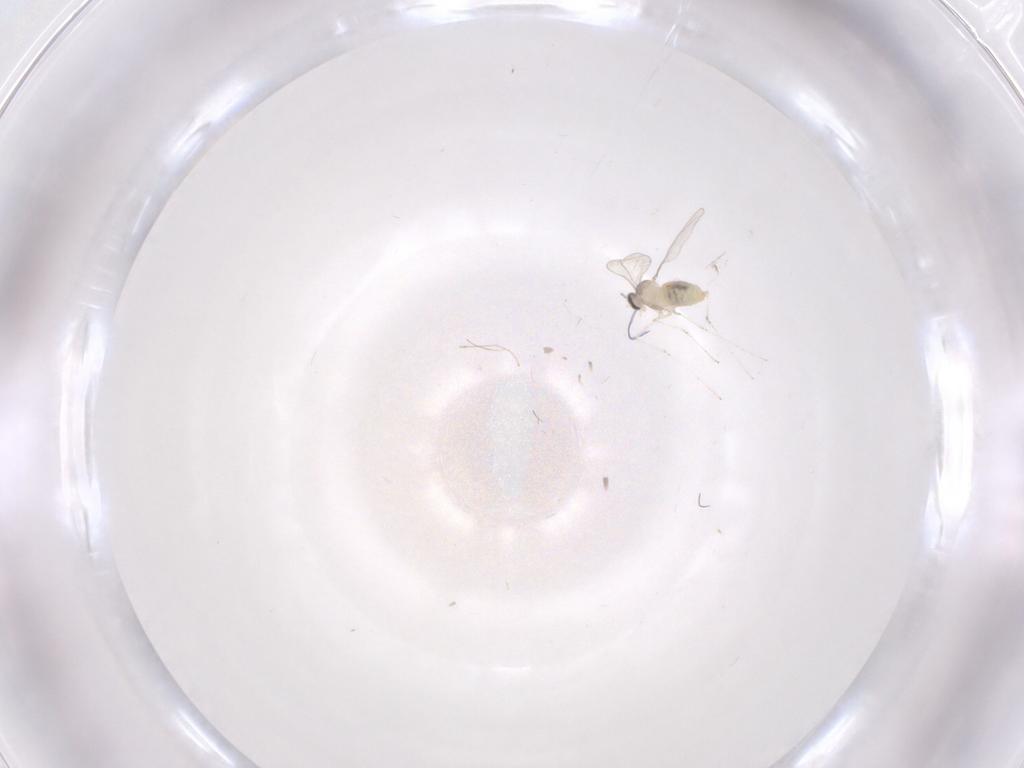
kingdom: Animalia
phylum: Arthropoda
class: Insecta
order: Diptera
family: Cecidomyiidae
